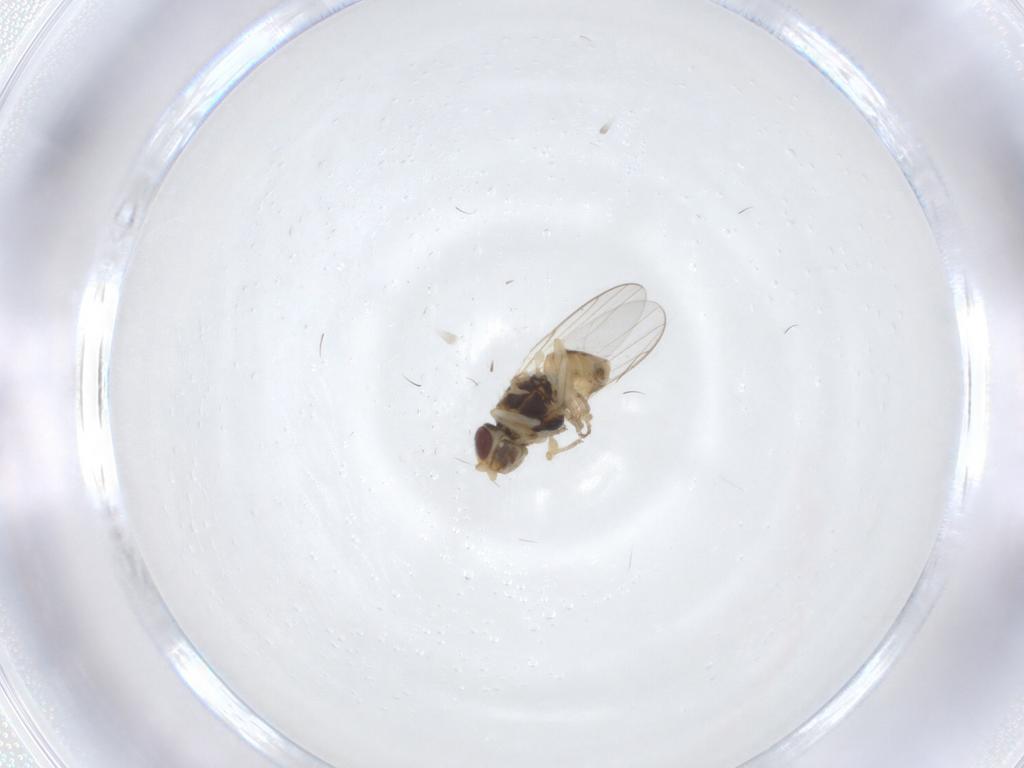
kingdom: Animalia
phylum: Arthropoda
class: Insecta
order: Diptera
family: Chloropidae
